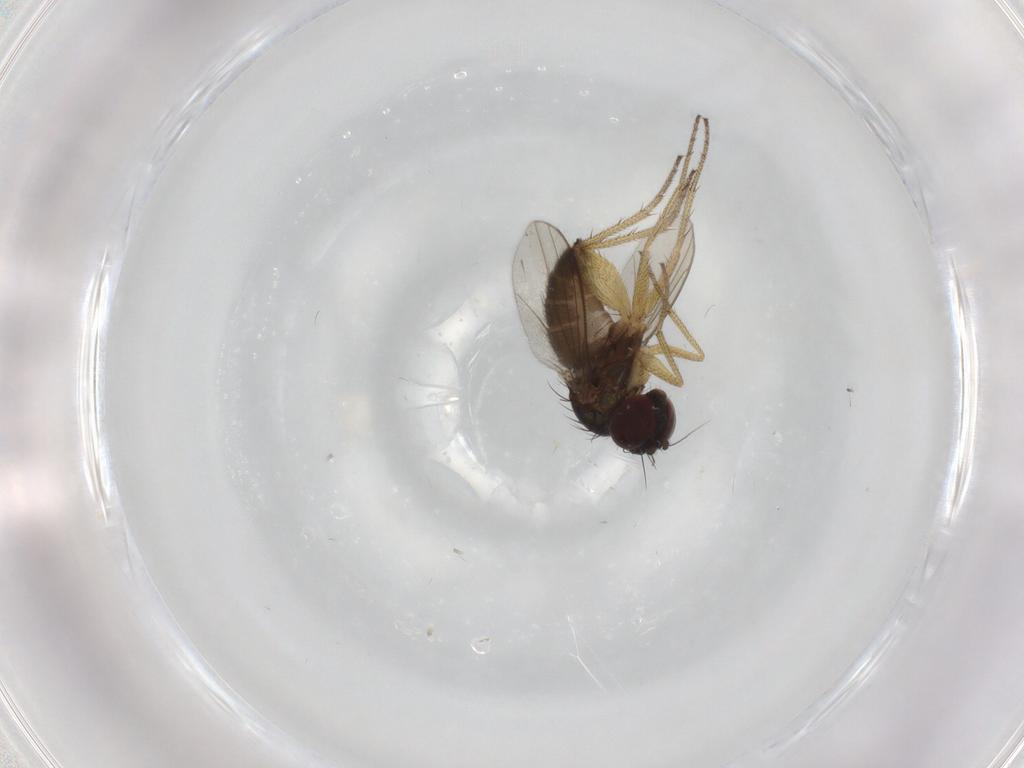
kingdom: Animalia
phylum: Arthropoda
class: Insecta
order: Diptera
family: Dolichopodidae
